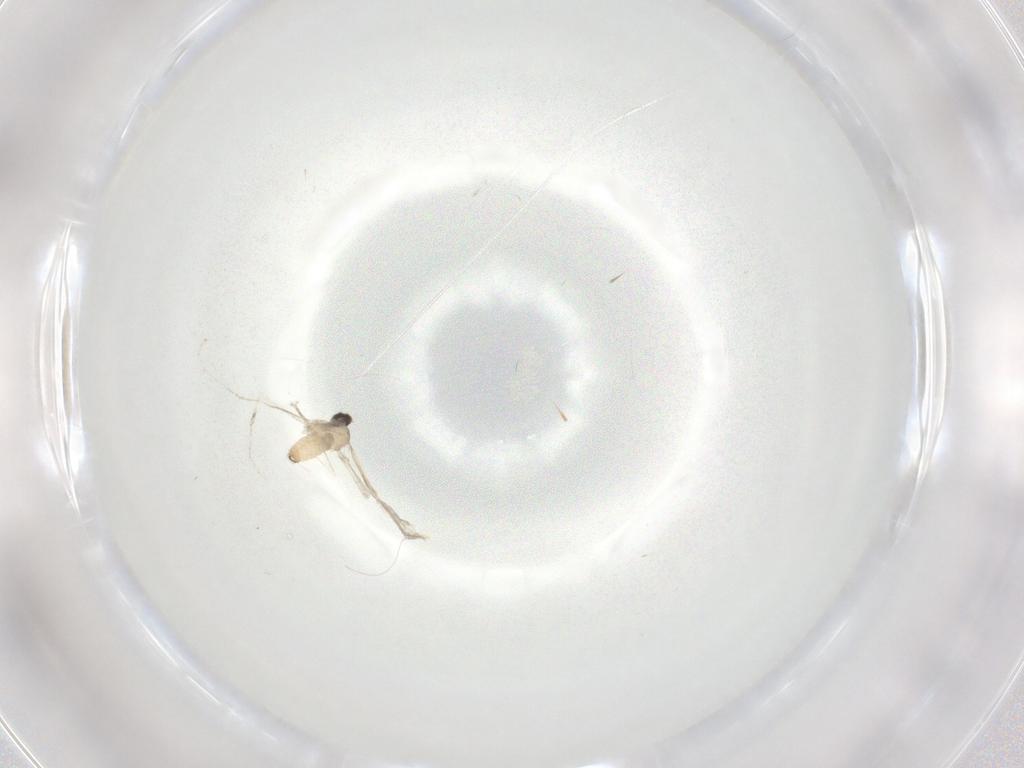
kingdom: Animalia
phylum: Arthropoda
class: Insecta
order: Diptera
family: Cecidomyiidae
